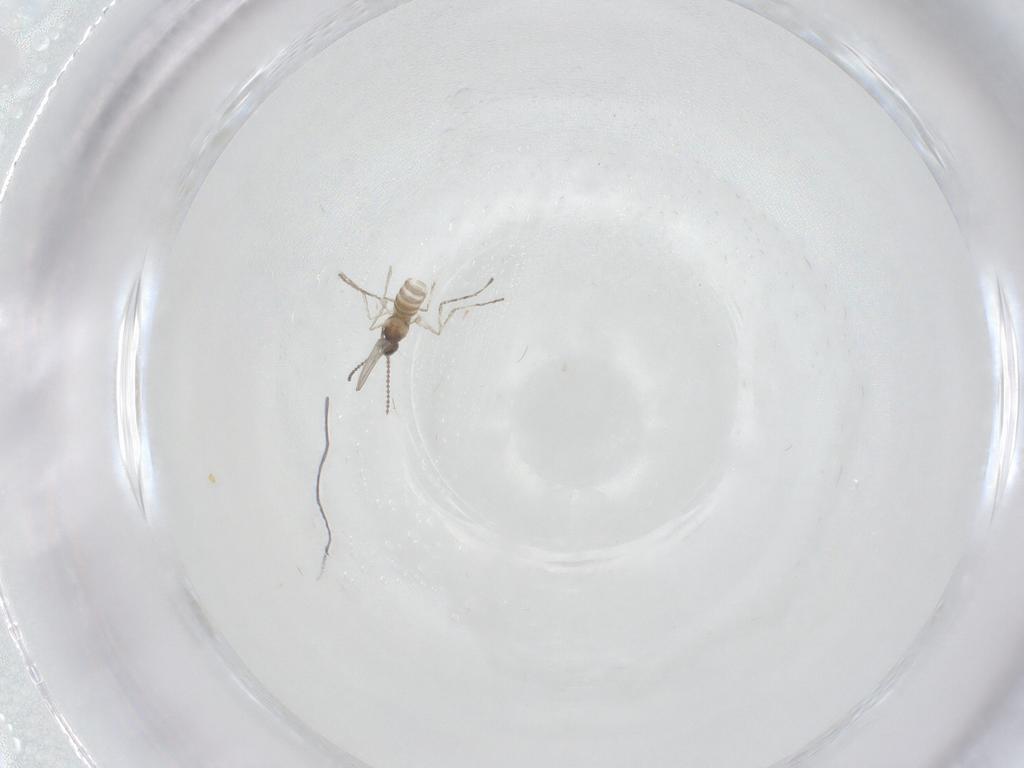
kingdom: Animalia
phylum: Arthropoda
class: Insecta
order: Diptera
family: Cecidomyiidae
